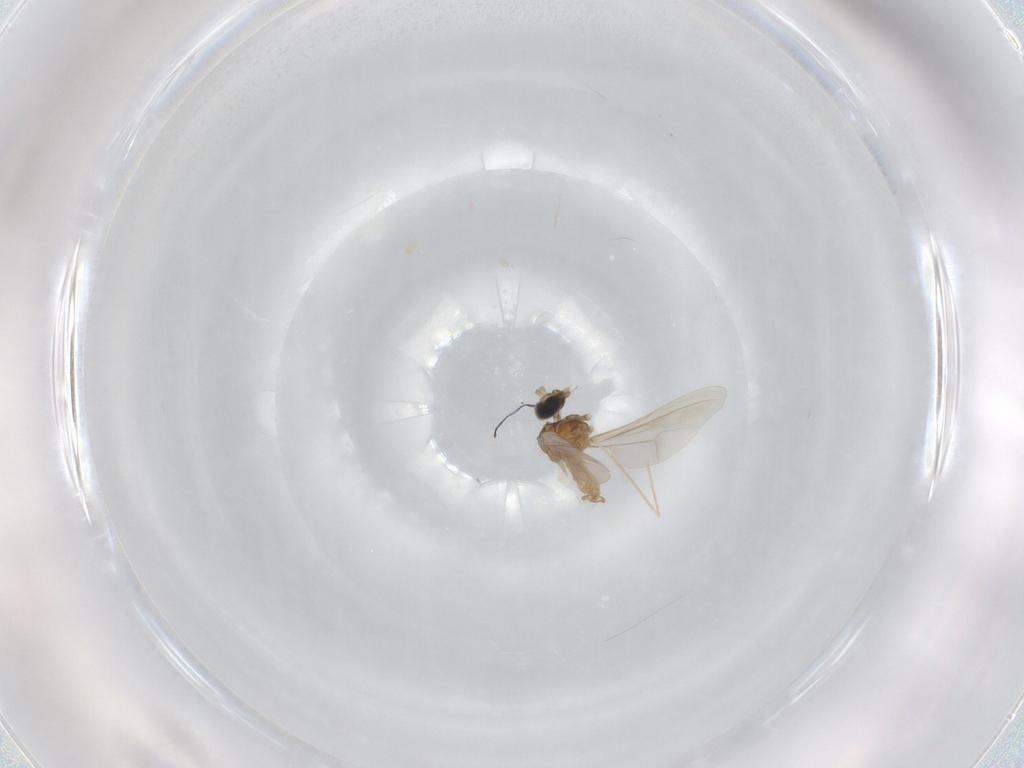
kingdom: Animalia
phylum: Arthropoda
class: Insecta
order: Diptera
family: Cecidomyiidae
